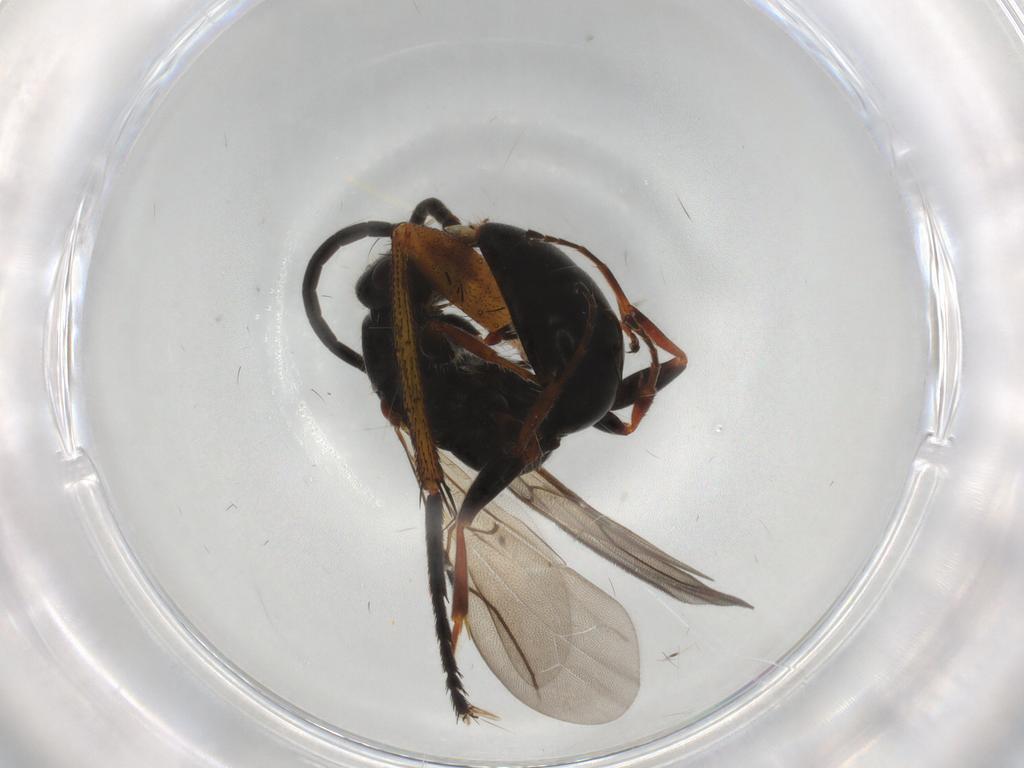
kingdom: Animalia
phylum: Arthropoda
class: Insecta
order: Hymenoptera
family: Bethylidae
